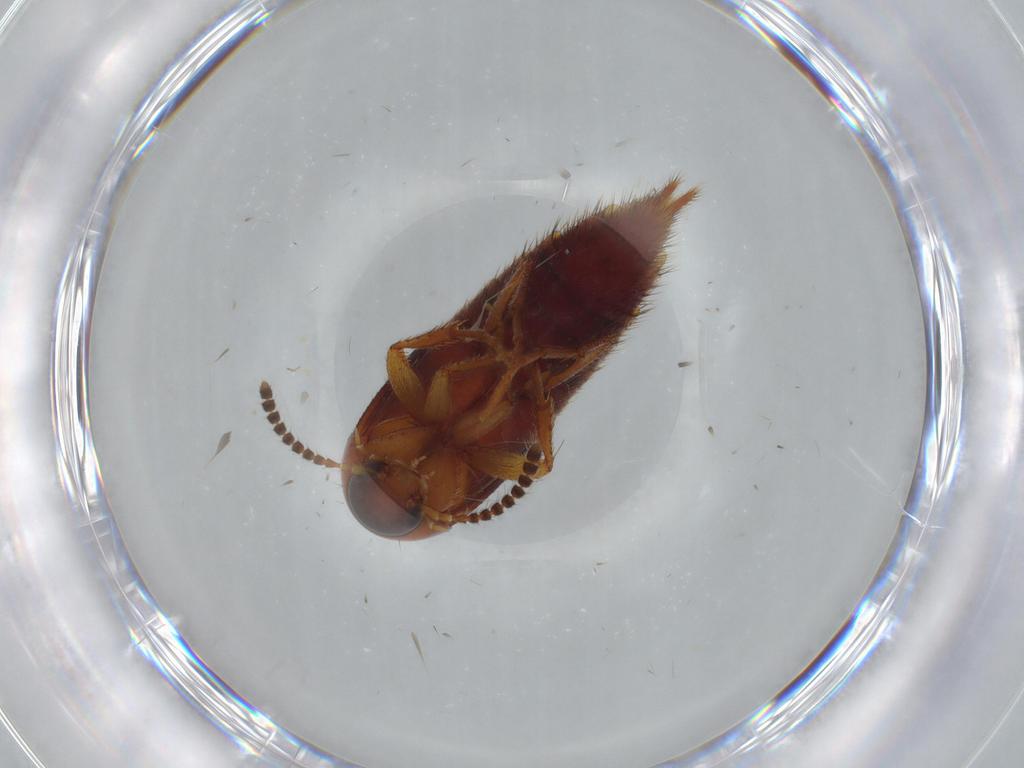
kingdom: Animalia
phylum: Arthropoda
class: Insecta
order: Coleoptera
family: Staphylinidae
